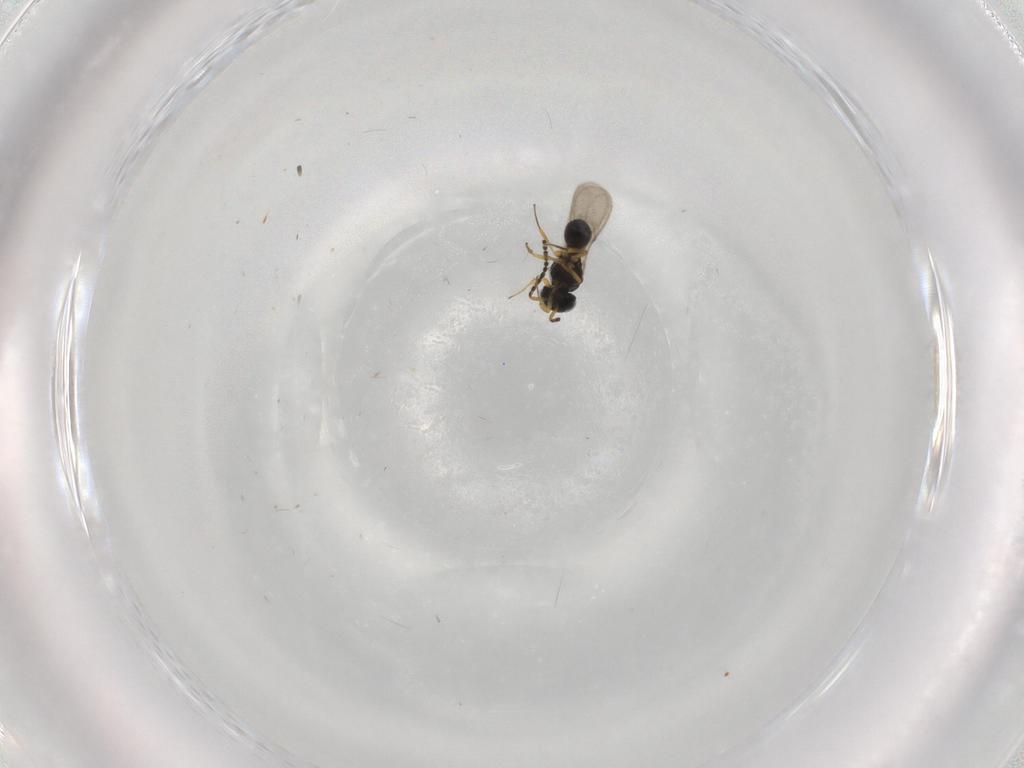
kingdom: Animalia
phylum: Arthropoda
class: Insecta
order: Hymenoptera
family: Scelionidae
